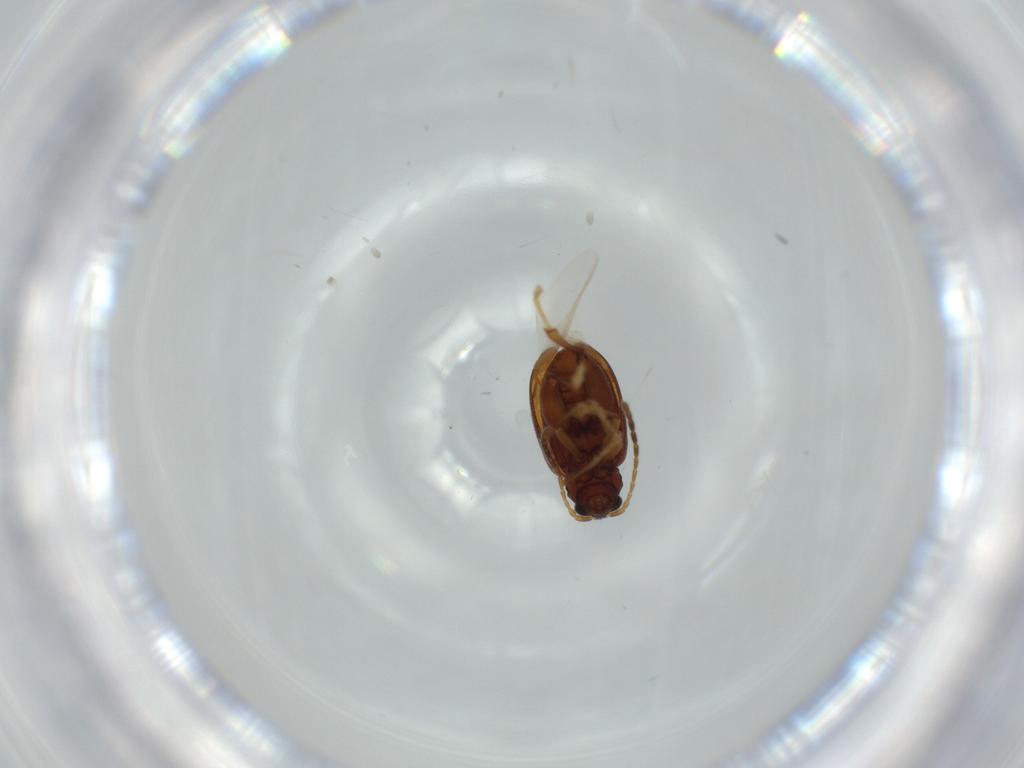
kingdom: Animalia
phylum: Arthropoda
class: Insecta
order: Coleoptera
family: Chrysomelidae
